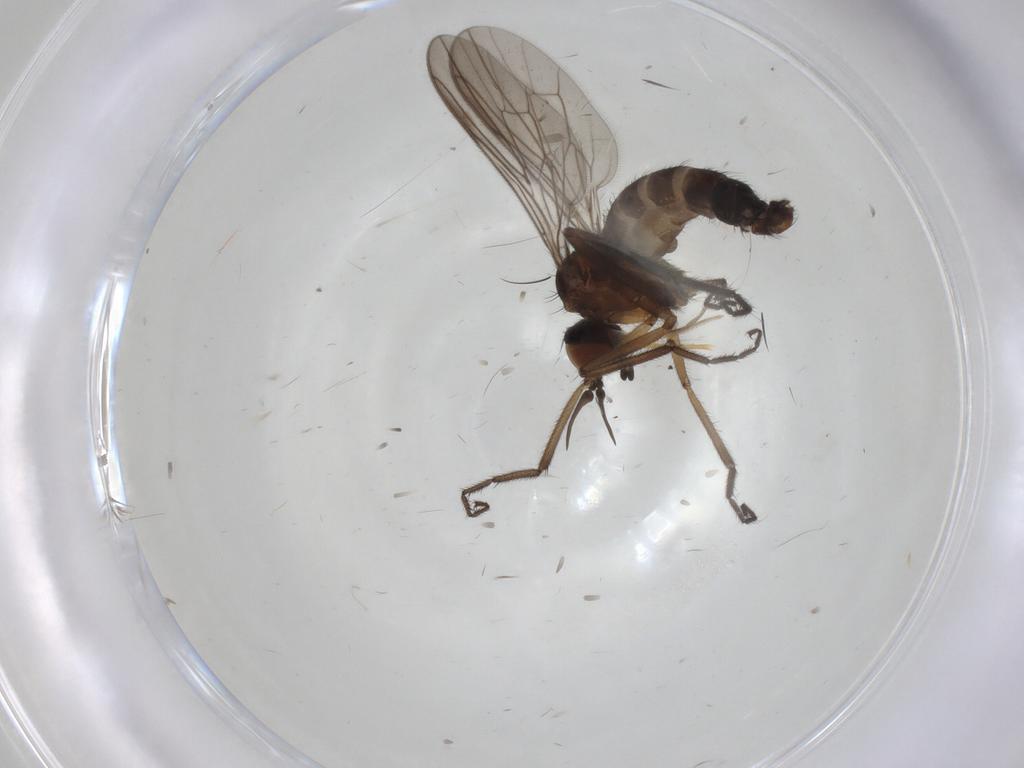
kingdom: Animalia
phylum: Arthropoda
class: Insecta
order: Diptera
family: Empididae
